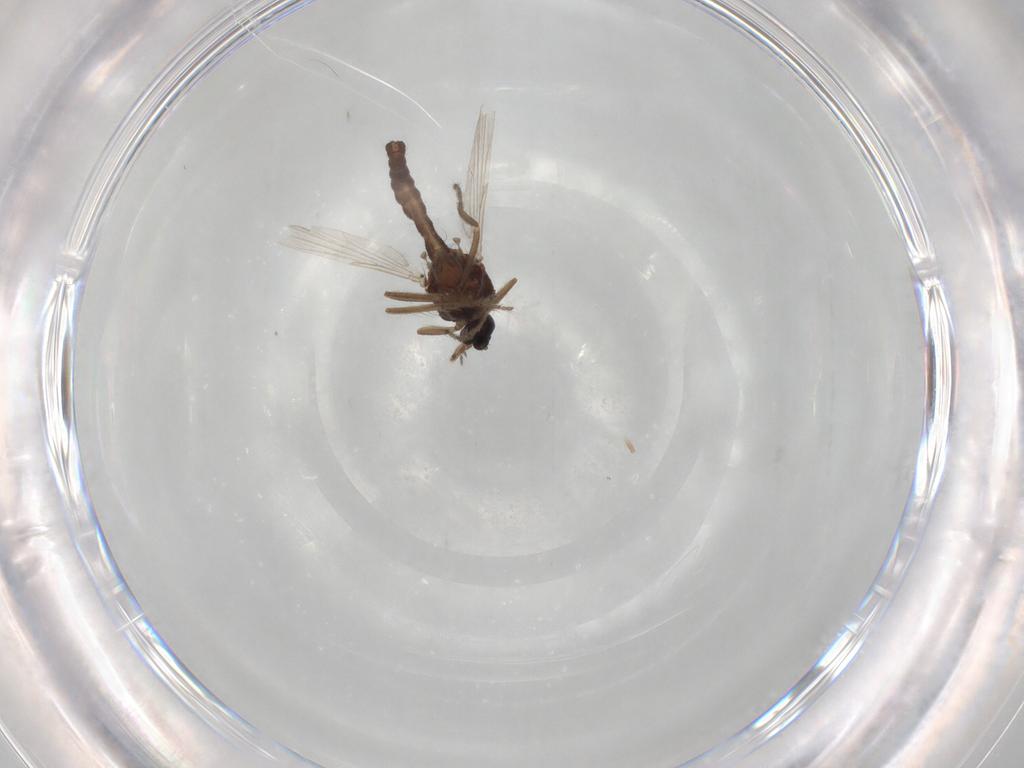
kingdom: Animalia
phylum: Arthropoda
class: Insecta
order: Diptera
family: Ceratopogonidae
